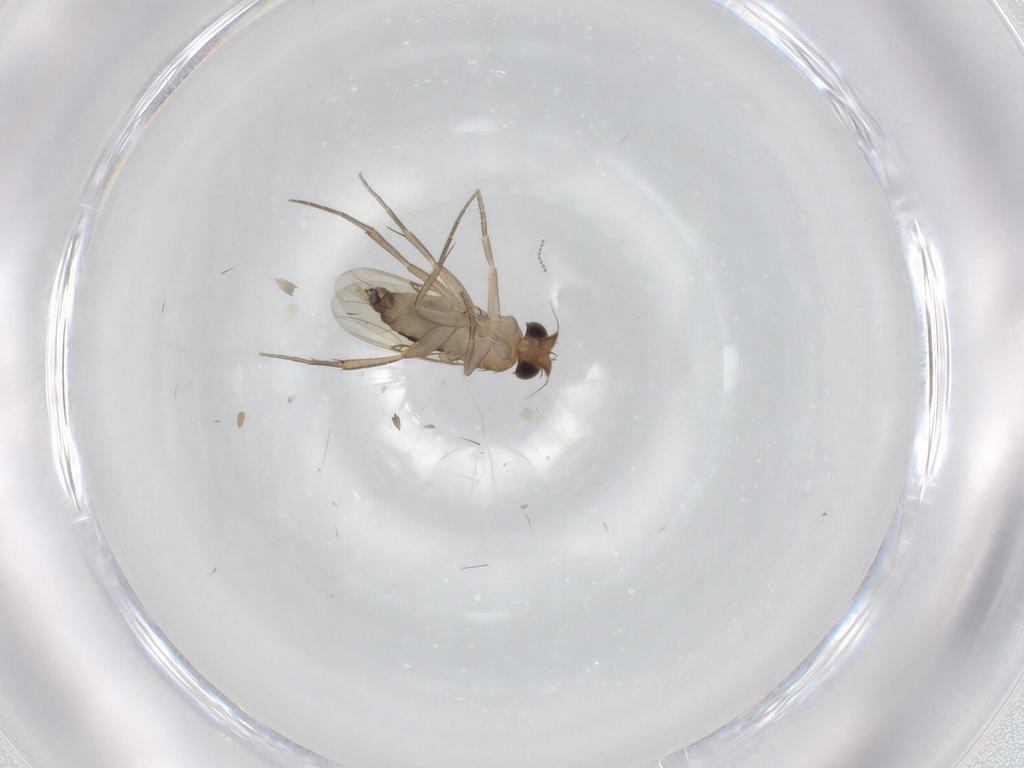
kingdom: Animalia
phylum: Arthropoda
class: Insecta
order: Diptera
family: Phoridae
